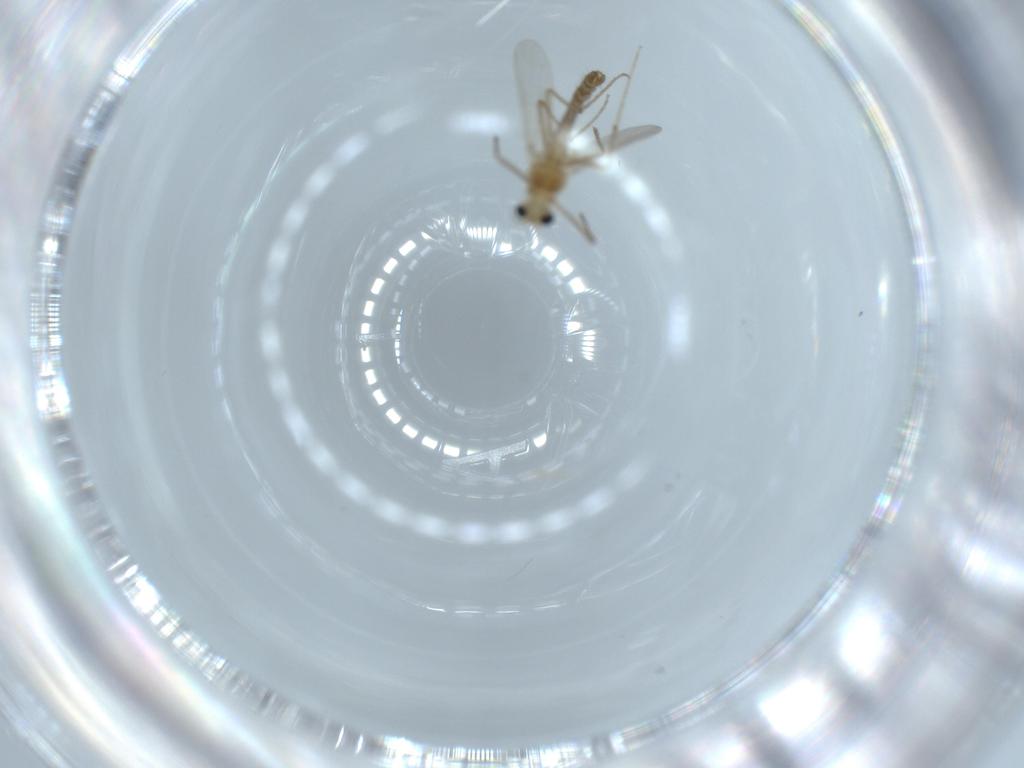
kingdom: Animalia
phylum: Arthropoda
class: Insecta
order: Diptera
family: Chironomidae
